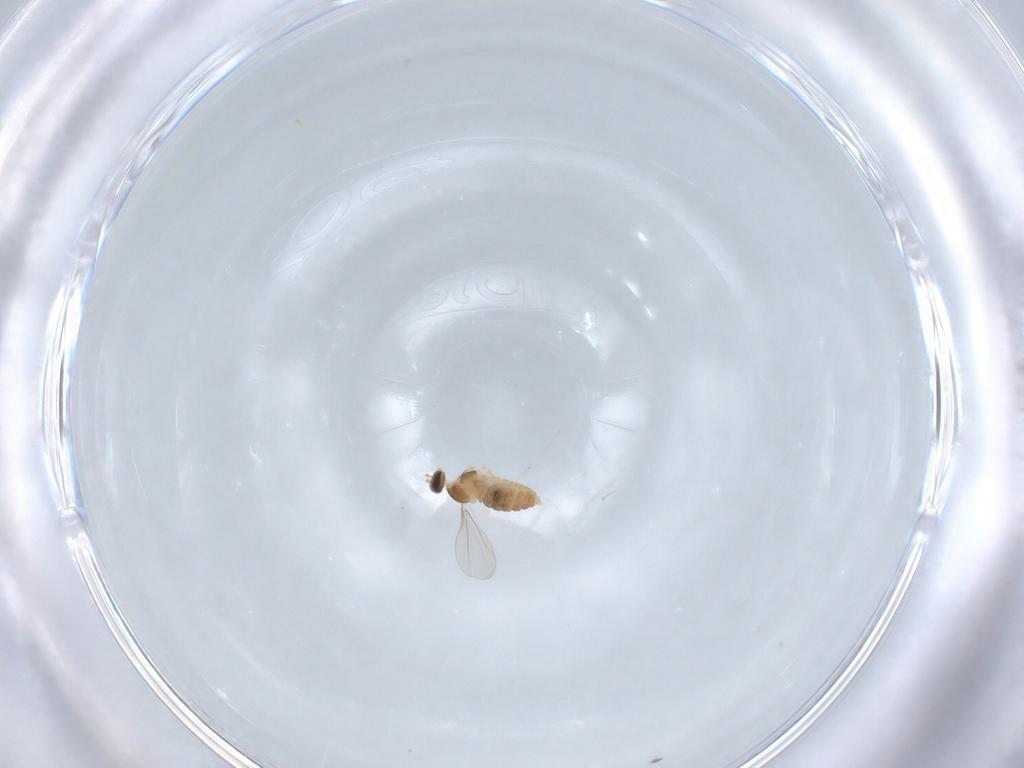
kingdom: Animalia
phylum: Arthropoda
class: Insecta
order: Diptera
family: Cecidomyiidae
